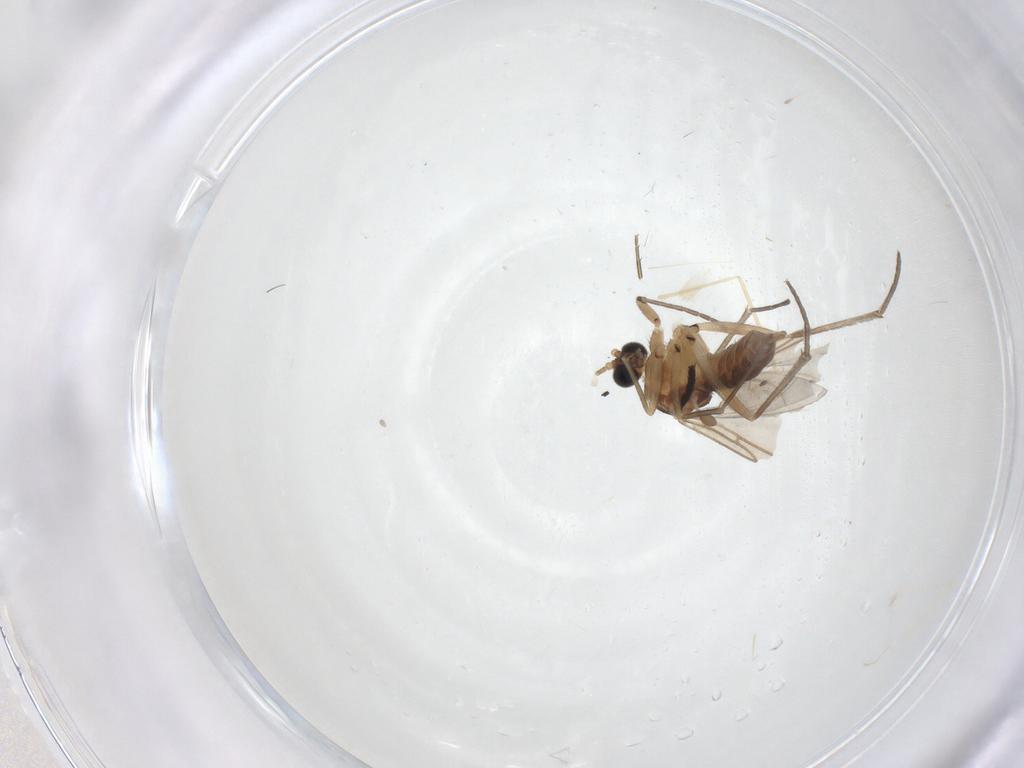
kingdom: Animalia
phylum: Arthropoda
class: Insecta
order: Diptera
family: Sciaridae
